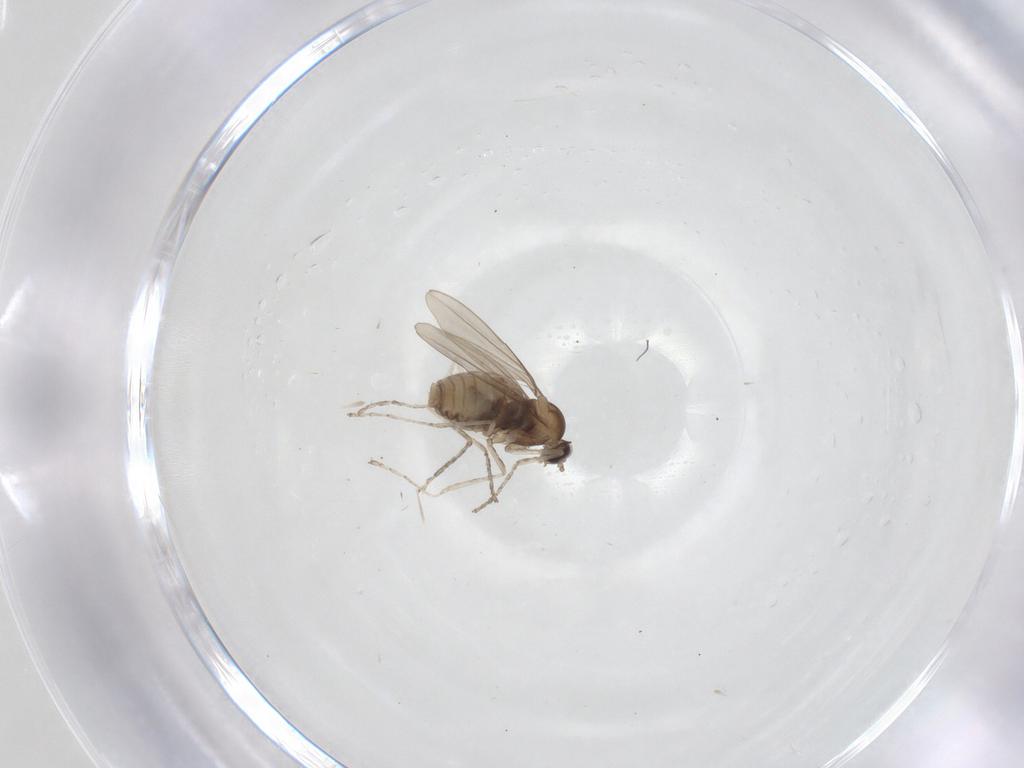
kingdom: Animalia
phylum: Arthropoda
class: Insecta
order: Diptera
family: Cecidomyiidae
